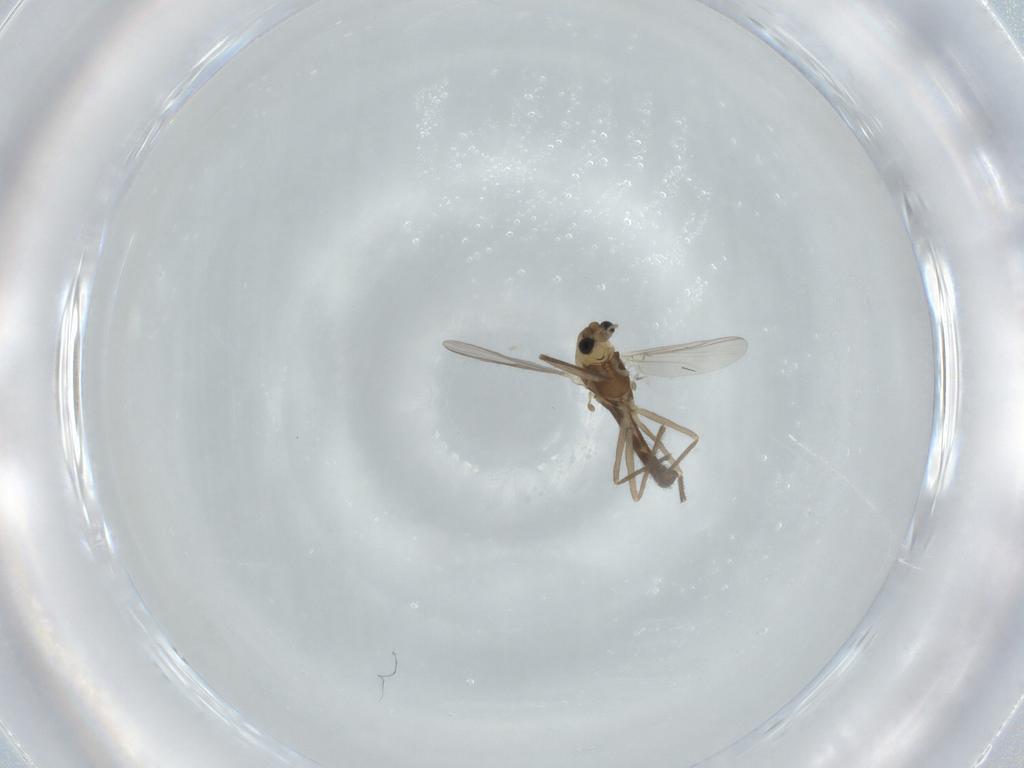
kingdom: Animalia
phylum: Arthropoda
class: Insecta
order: Diptera
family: Chironomidae
